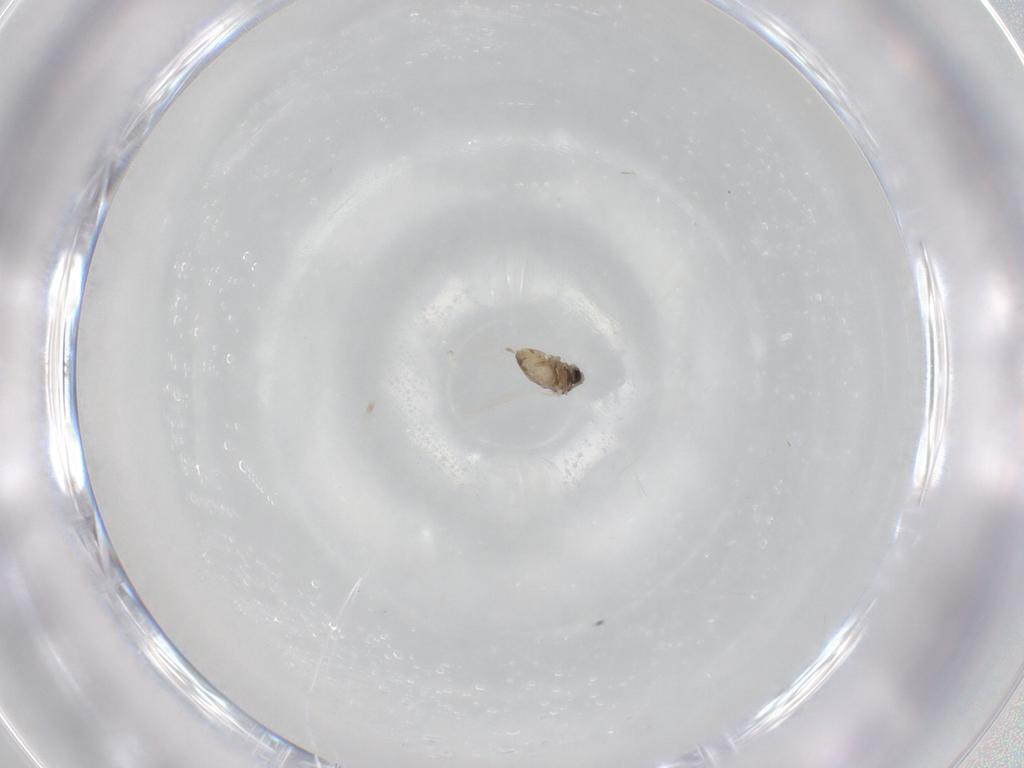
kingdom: Animalia
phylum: Arthropoda
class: Insecta
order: Diptera
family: Cecidomyiidae
